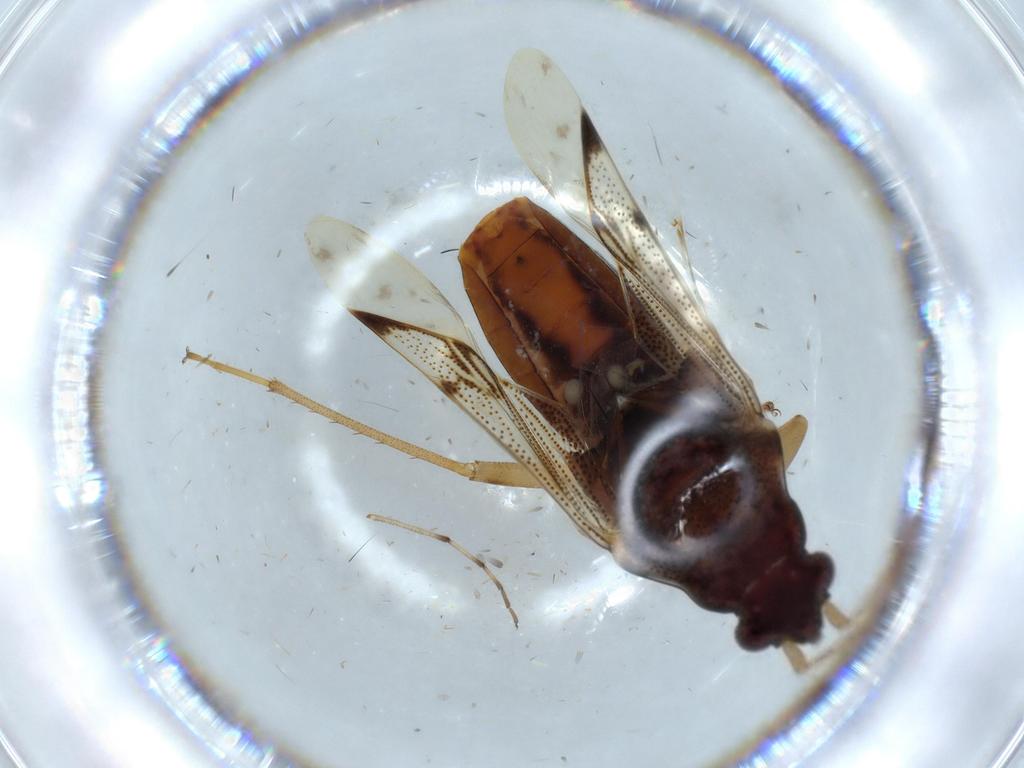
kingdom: Animalia
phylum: Arthropoda
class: Insecta
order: Hemiptera
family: Rhyparochromidae
